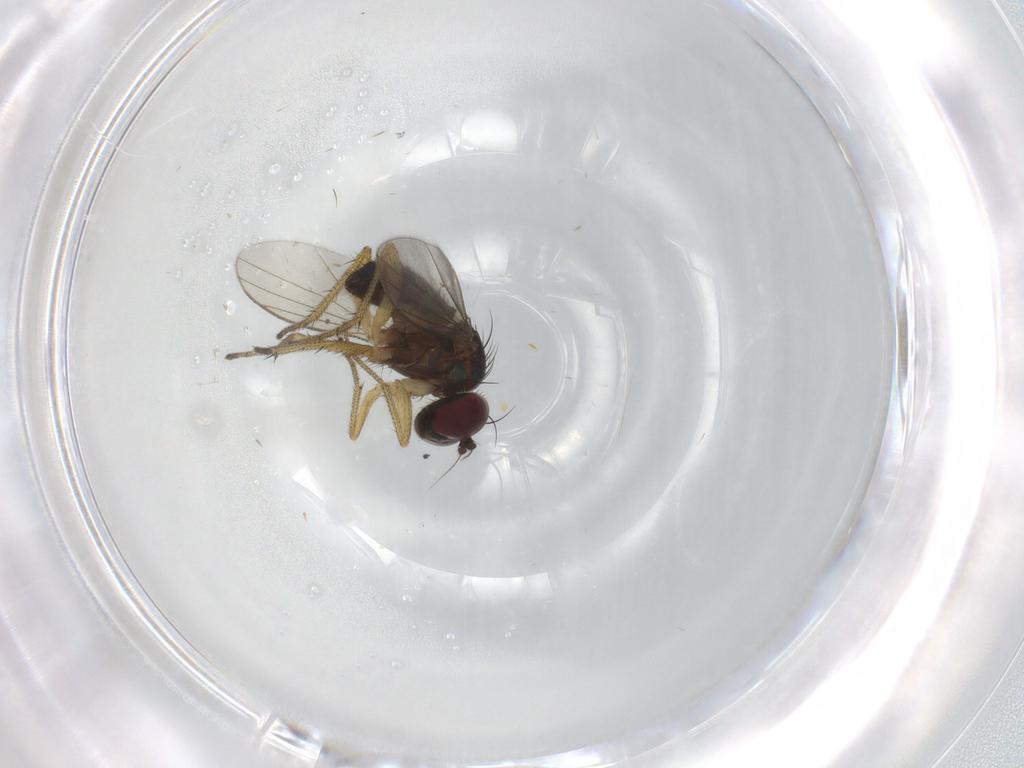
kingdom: Animalia
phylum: Arthropoda
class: Insecta
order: Diptera
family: Dolichopodidae
